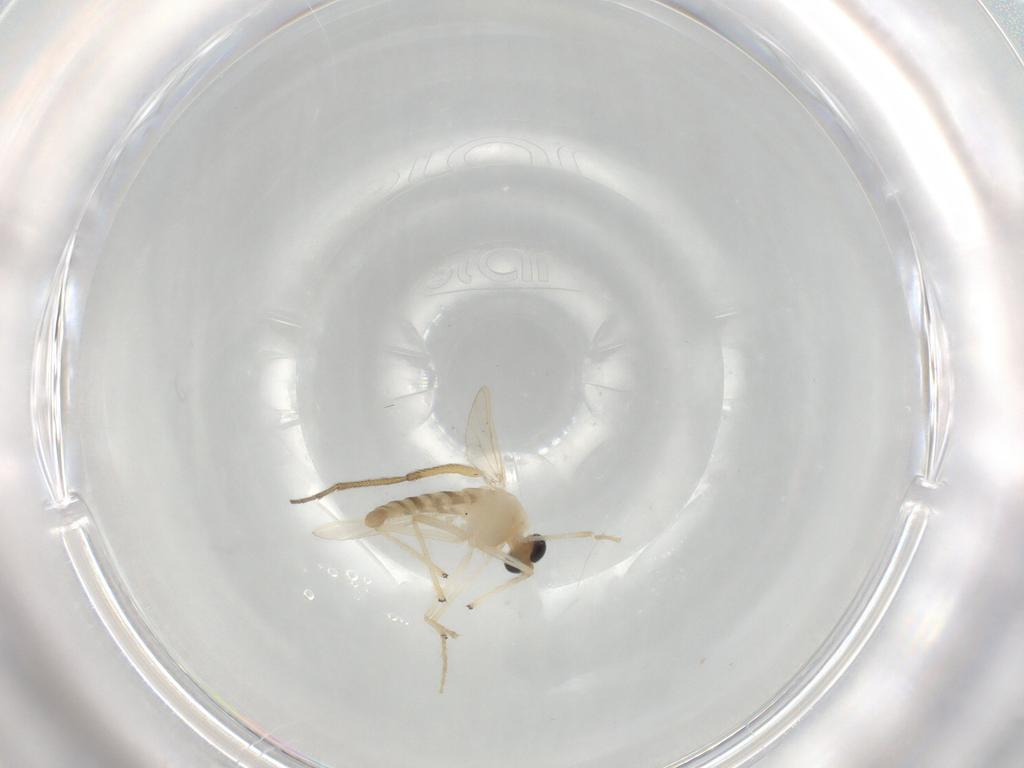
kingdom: Animalia
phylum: Arthropoda
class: Insecta
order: Diptera
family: Chironomidae
